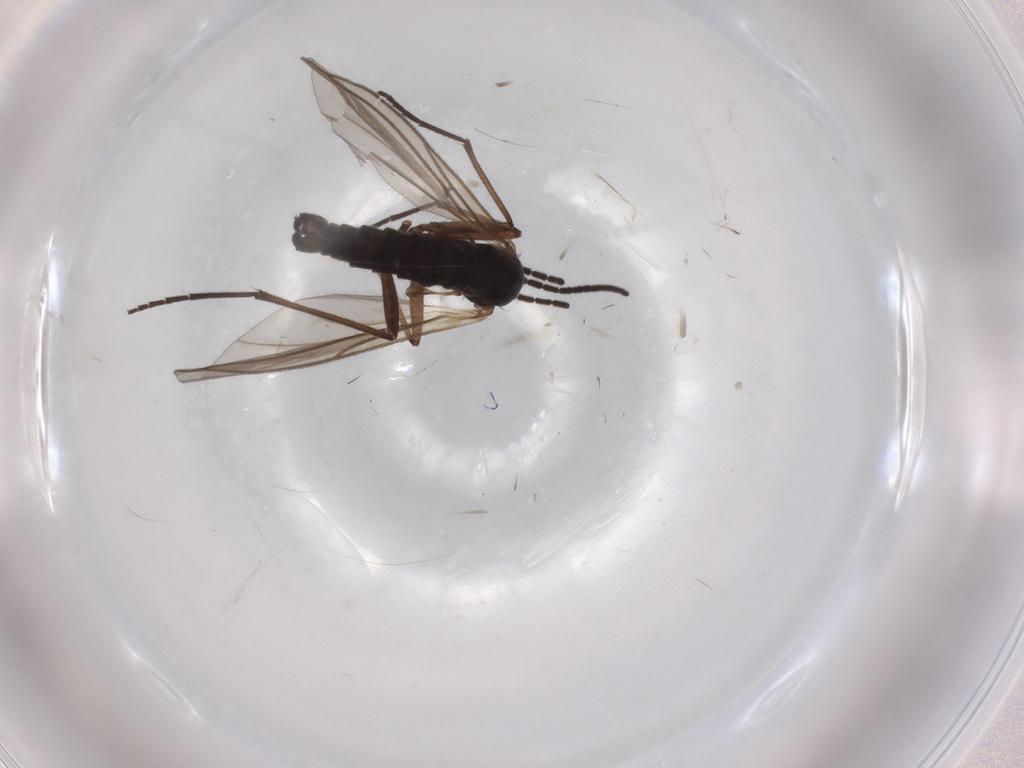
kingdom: Animalia
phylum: Arthropoda
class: Insecta
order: Diptera
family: Sciaridae
